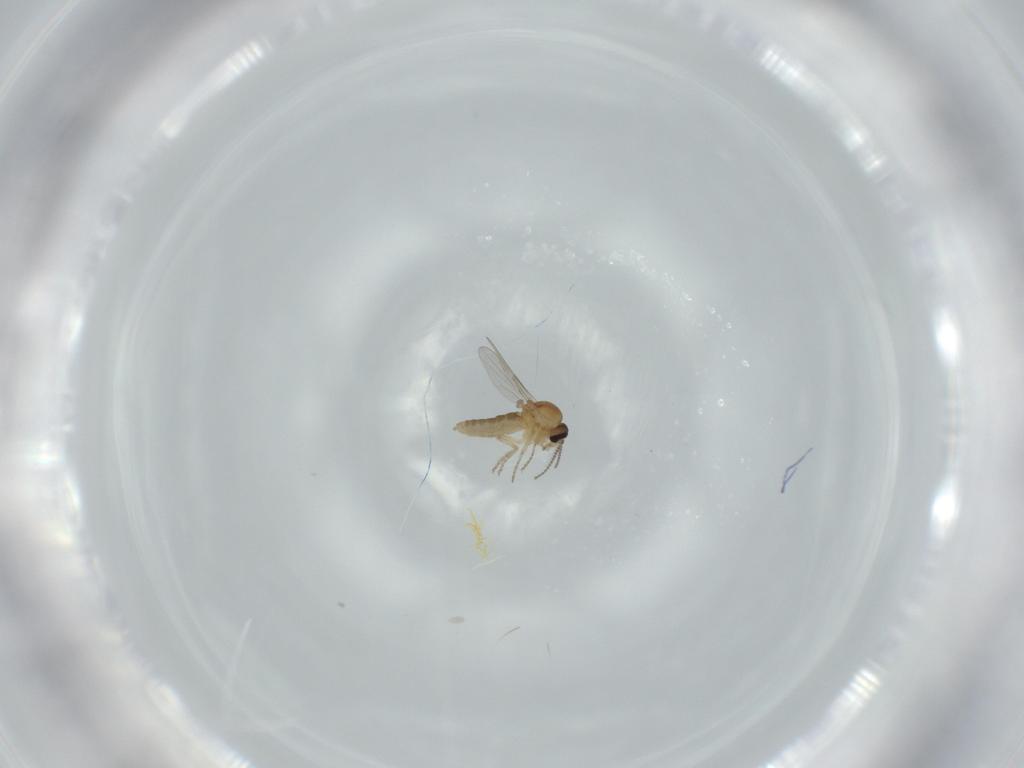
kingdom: Animalia
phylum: Arthropoda
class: Insecta
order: Diptera
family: Ceratopogonidae
